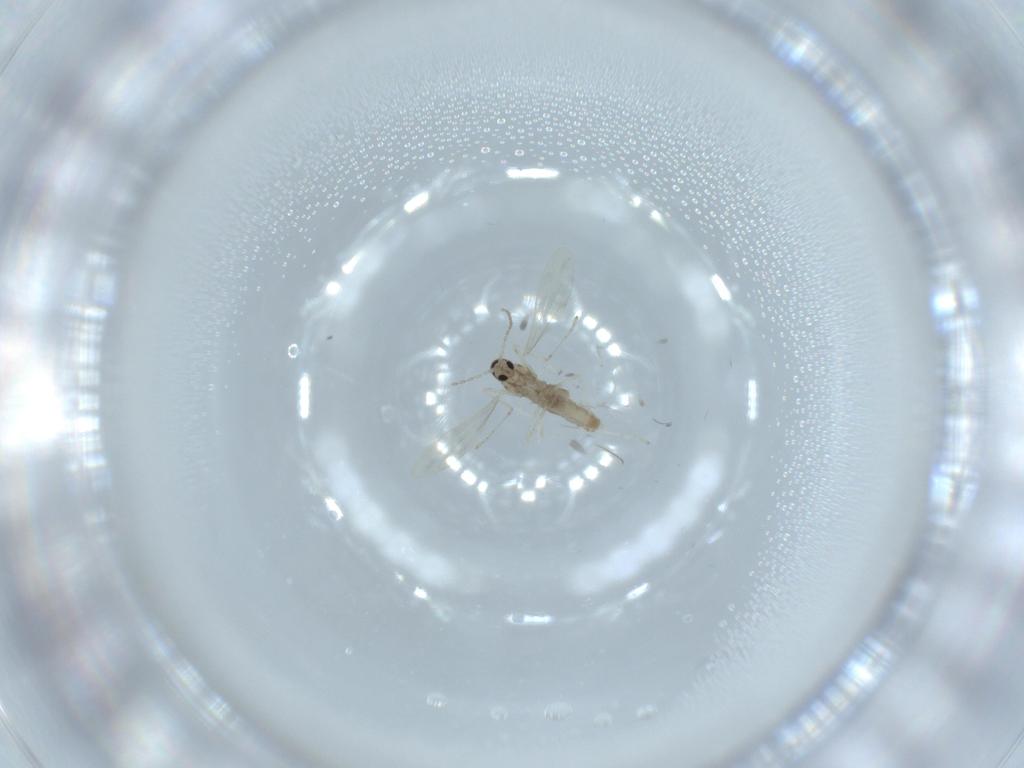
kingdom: Animalia
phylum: Arthropoda
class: Insecta
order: Diptera
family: Cecidomyiidae
